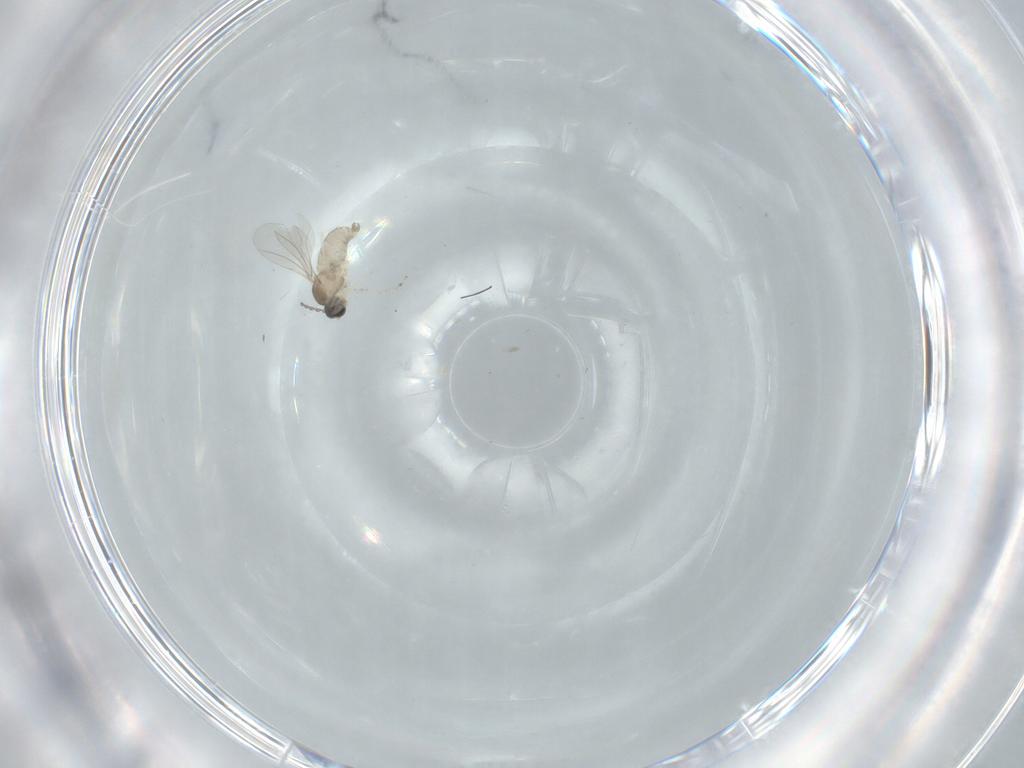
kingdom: Animalia
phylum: Arthropoda
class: Insecta
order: Diptera
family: Cecidomyiidae
